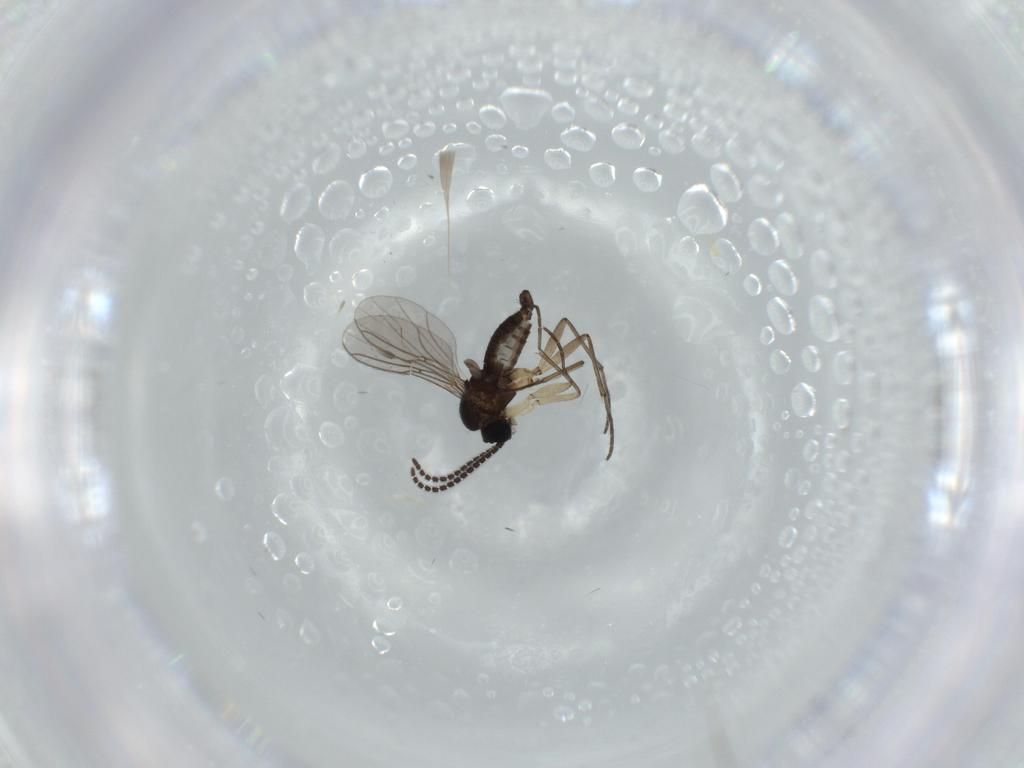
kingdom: Animalia
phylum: Arthropoda
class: Insecta
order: Diptera
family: Sciaridae
